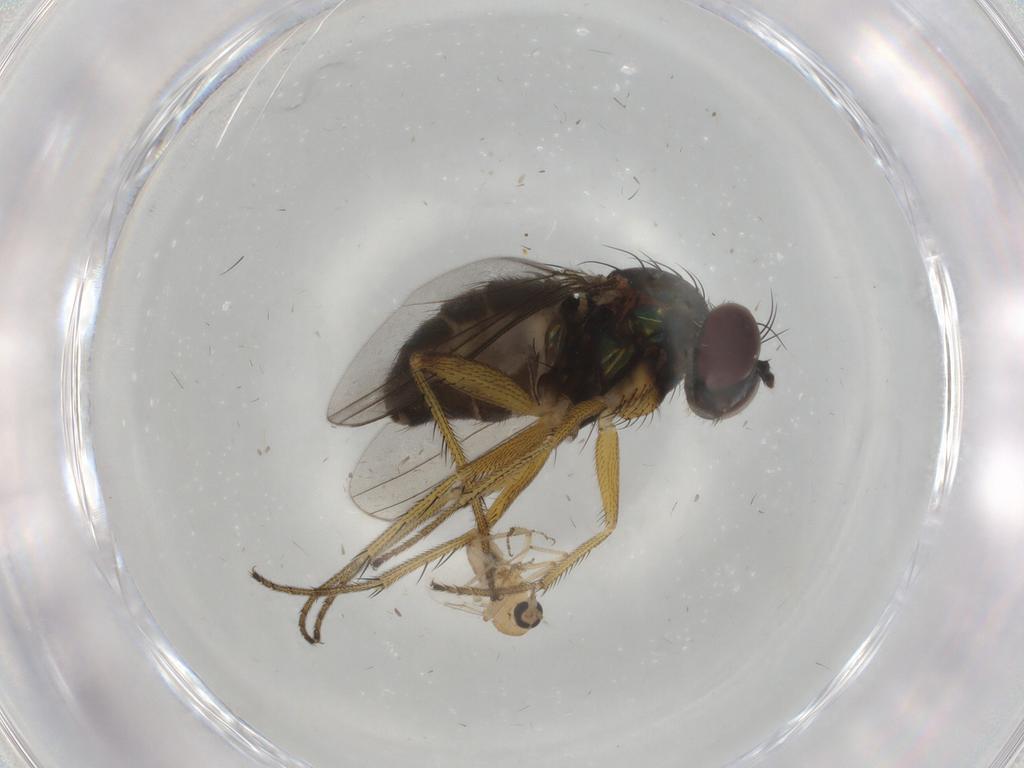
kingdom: Animalia
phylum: Arthropoda
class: Insecta
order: Diptera
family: Dolichopodidae
